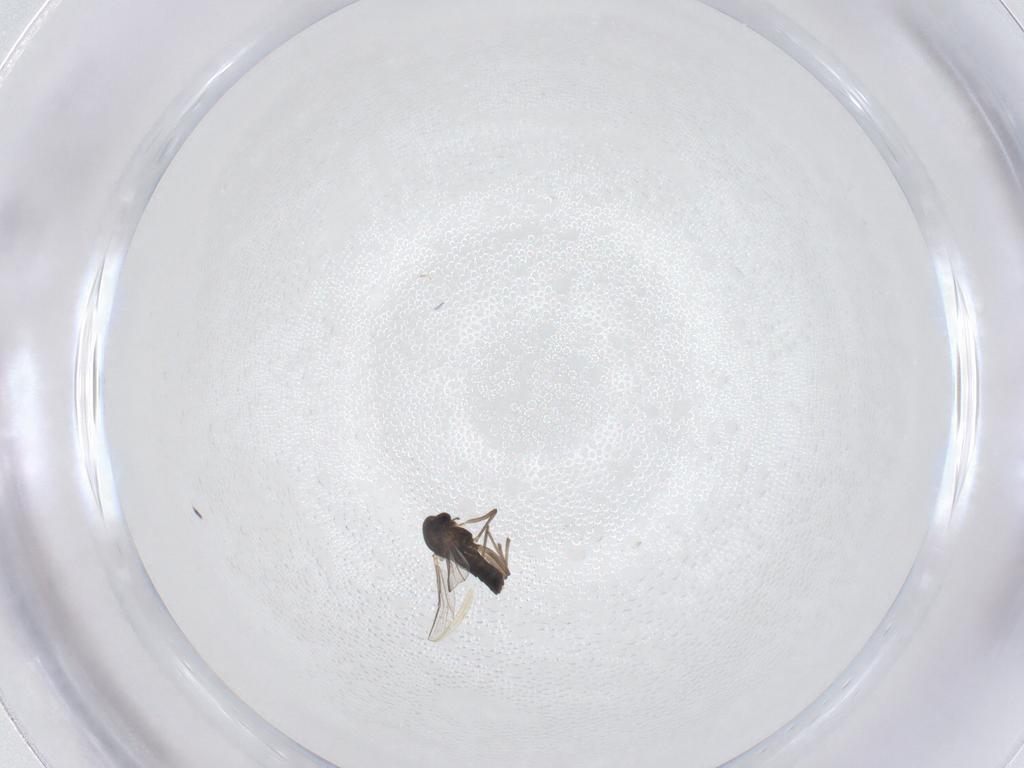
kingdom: Animalia
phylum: Arthropoda
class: Insecta
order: Diptera
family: Chironomidae
